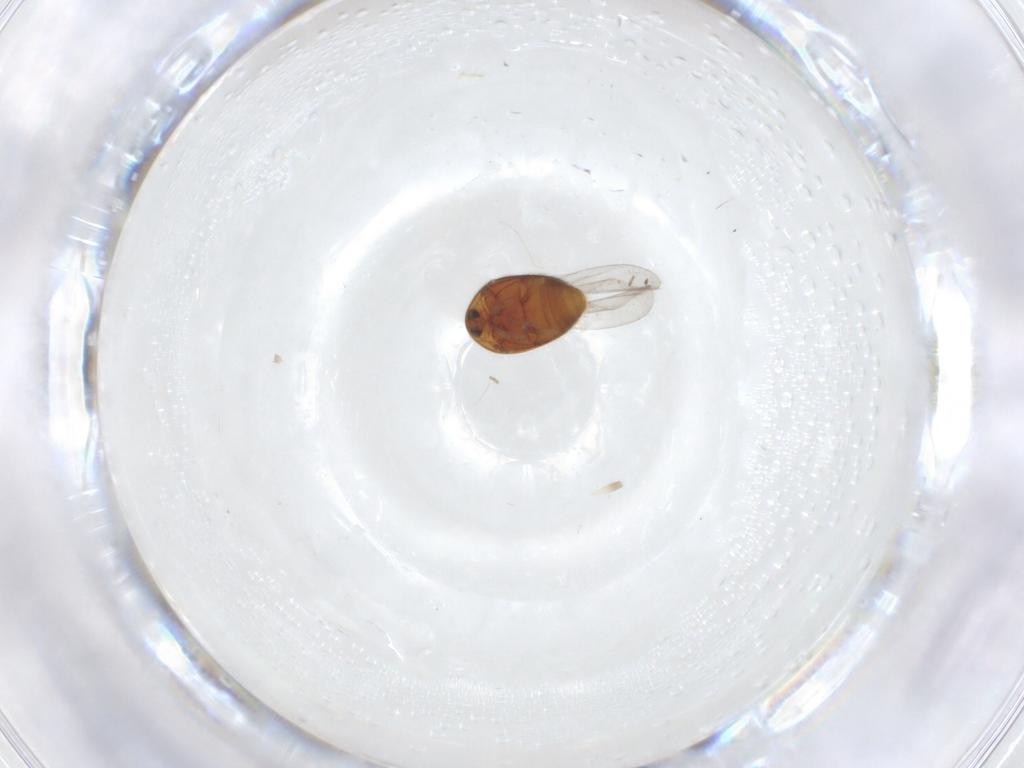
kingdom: Animalia
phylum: Arthropoda
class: Insecta
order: Coleoptera
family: Corylophidae
